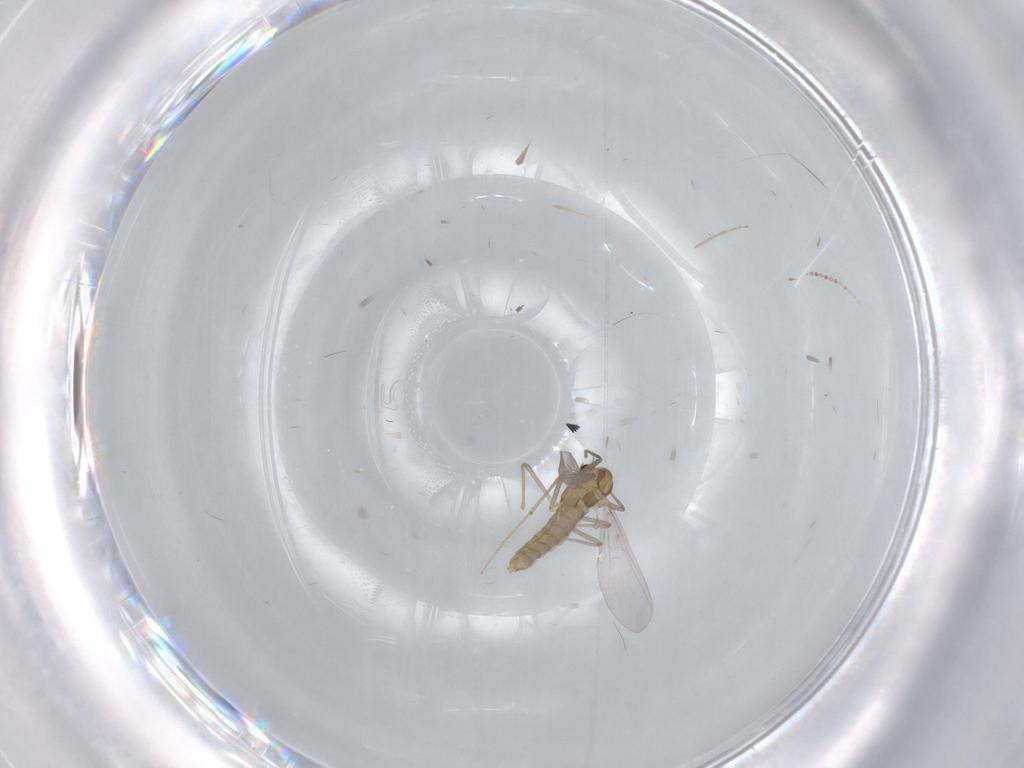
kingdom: Animalia
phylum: Arthropoda
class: Insecta
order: Diptera
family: Chironomidae
